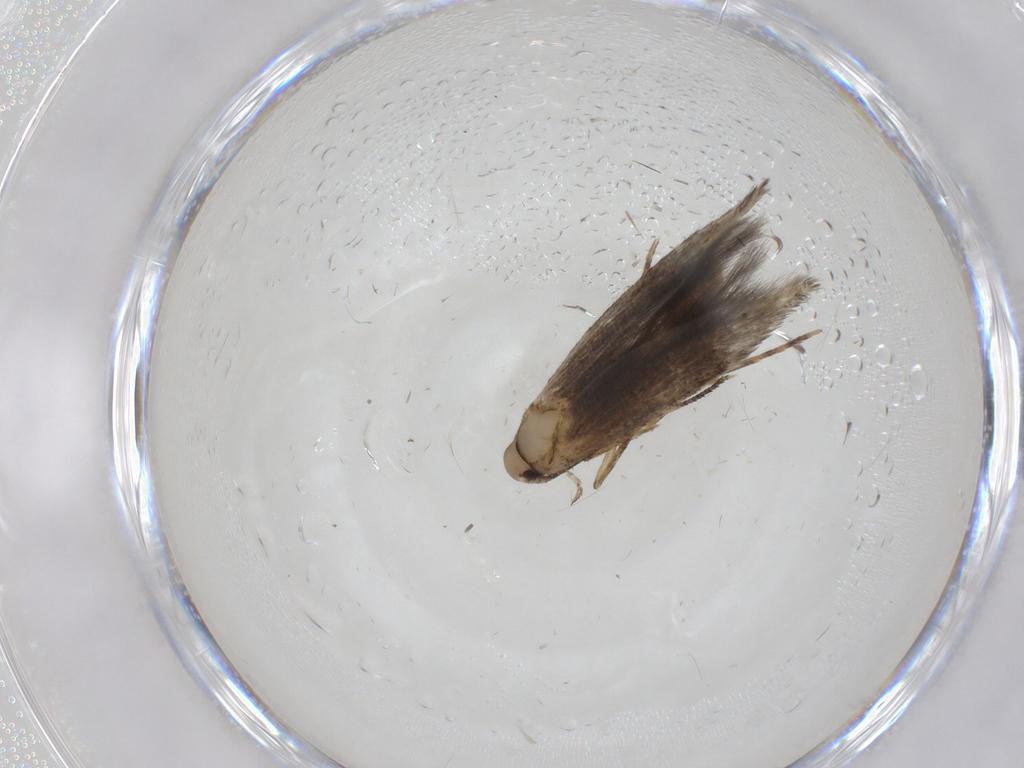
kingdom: Animalia
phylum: Arthropoda
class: Insecta
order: Lepidoptera
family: Cosmopterigidae
